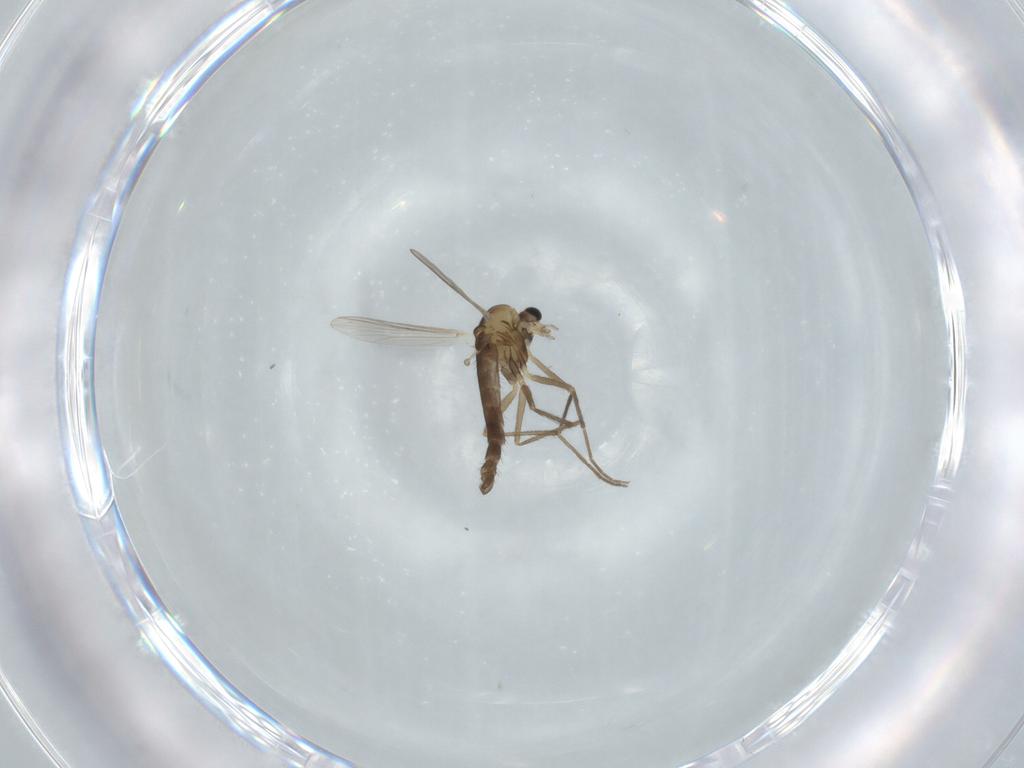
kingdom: Animalia
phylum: Arthropoda
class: Insecta
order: Diptera
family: Chironomidae
